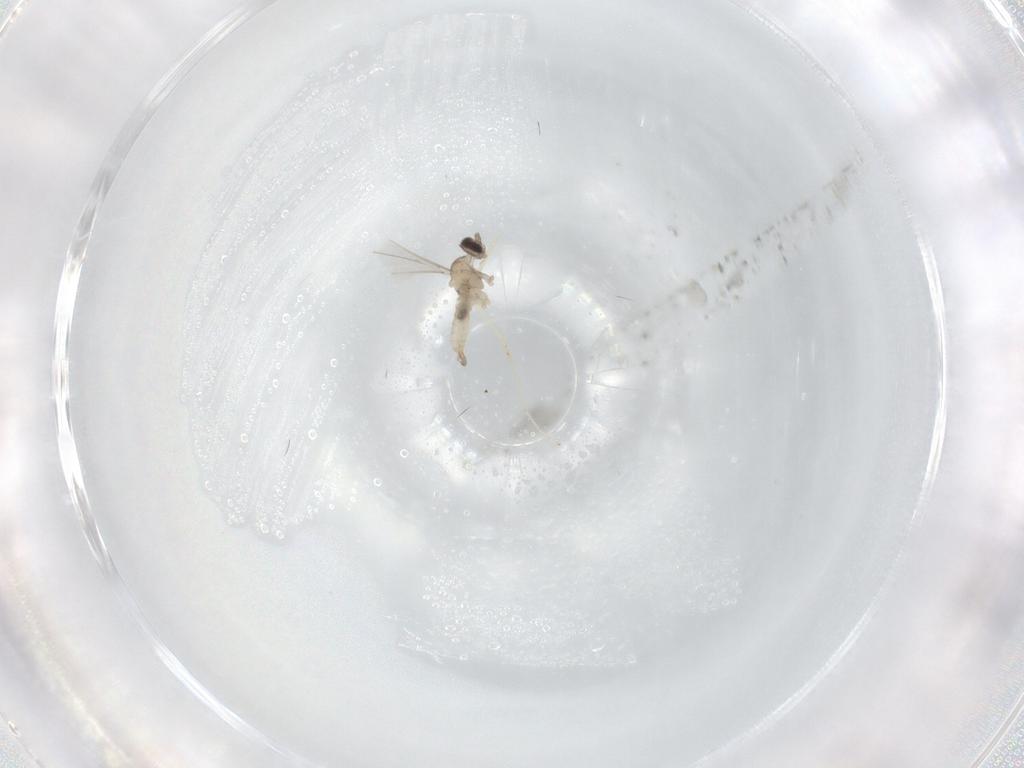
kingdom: Animalia
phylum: Arthropoda
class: Insecta
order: Diptera
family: Cecidomyiidae
